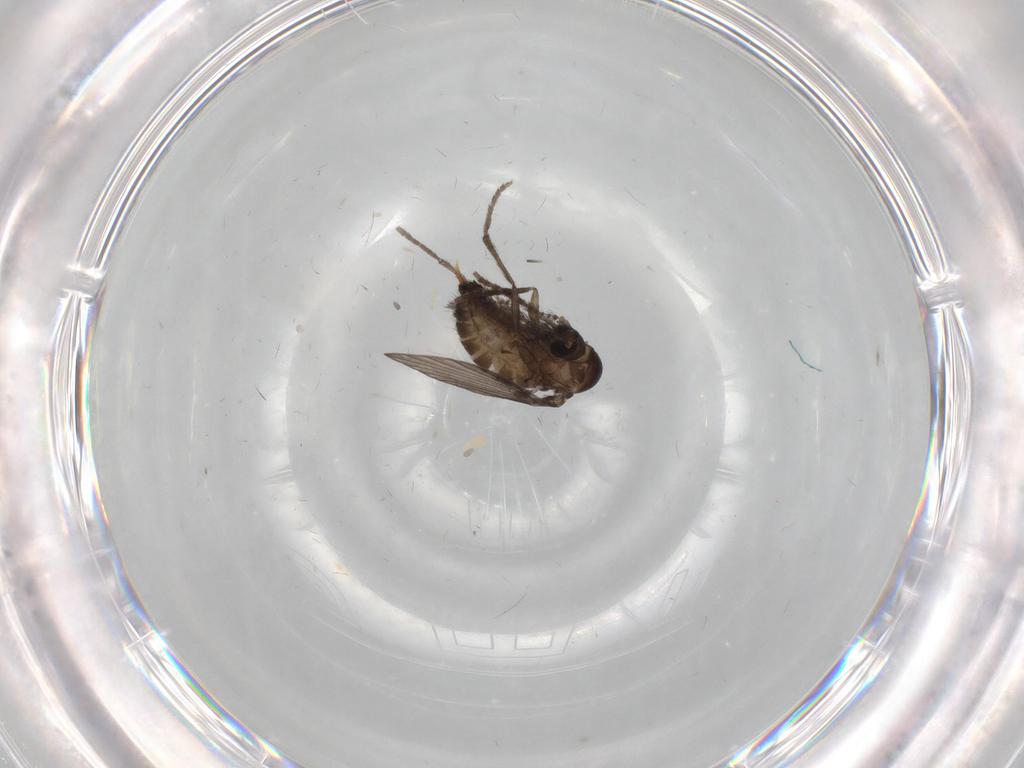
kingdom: Animalia
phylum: Arthropoda
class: Insecta
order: Diptera
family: Psychodidae
